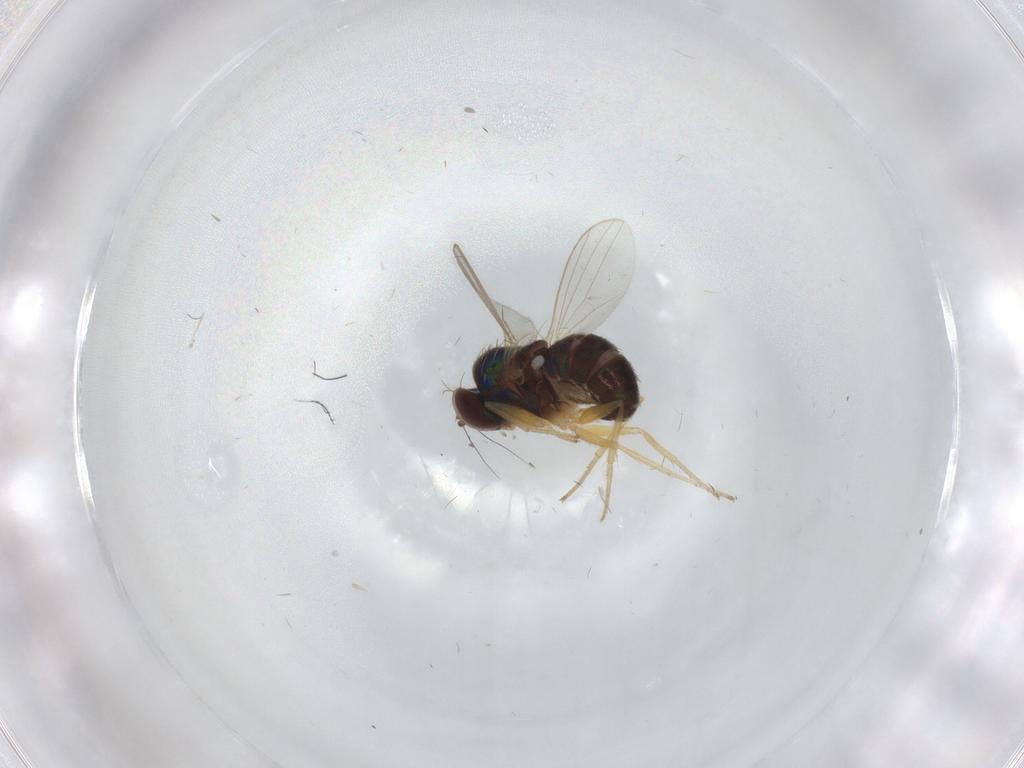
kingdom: Animalia
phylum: Arthropoda
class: Insecta
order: Diptera
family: Dolichopodidae
